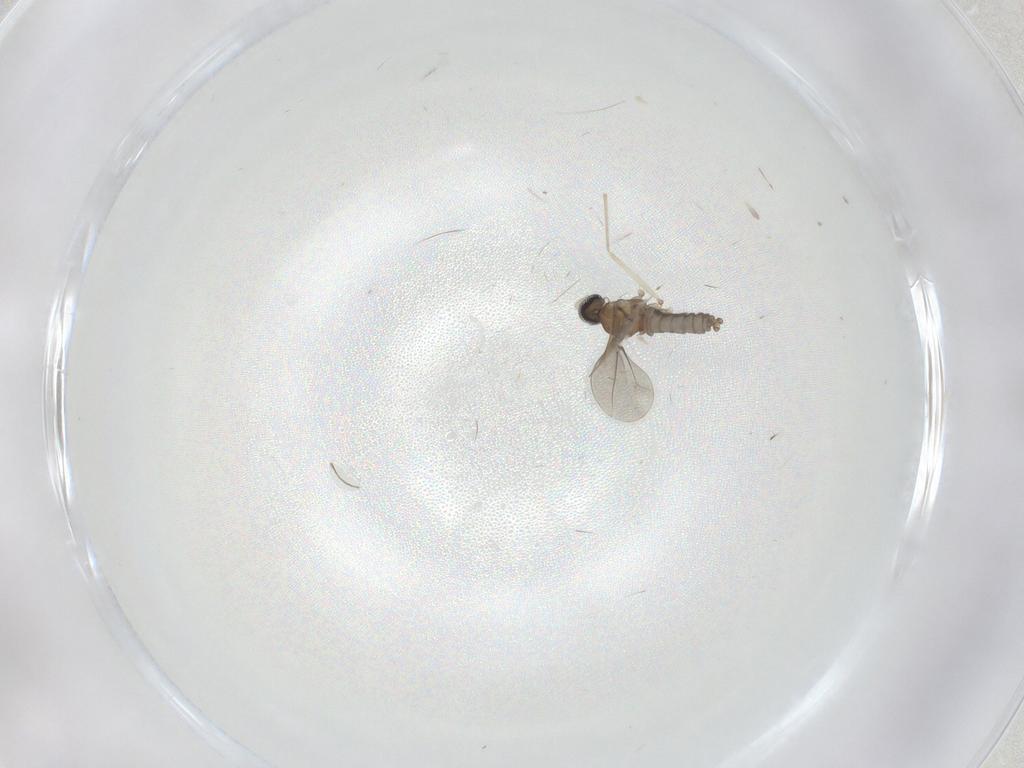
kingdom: Animalia
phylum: Arthropoda
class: Insecta
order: Diptera
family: Cecidomyiidae
